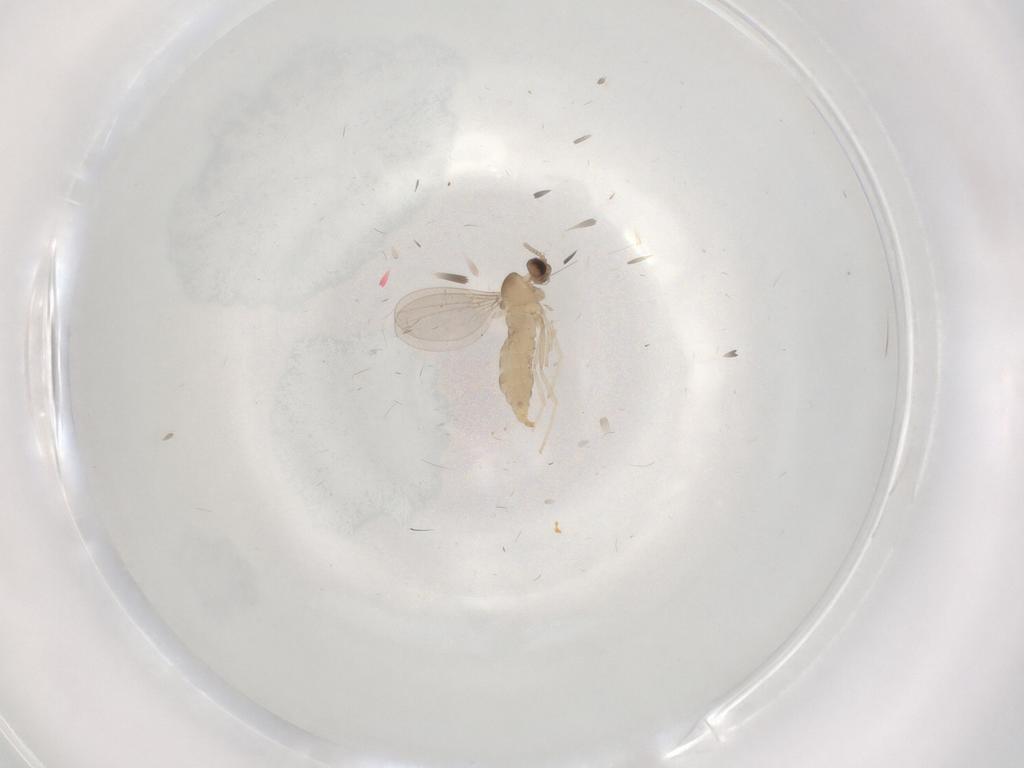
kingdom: Animalia
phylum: Arthropoda
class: Insecta
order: Diptera
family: Cecidomyiidae
